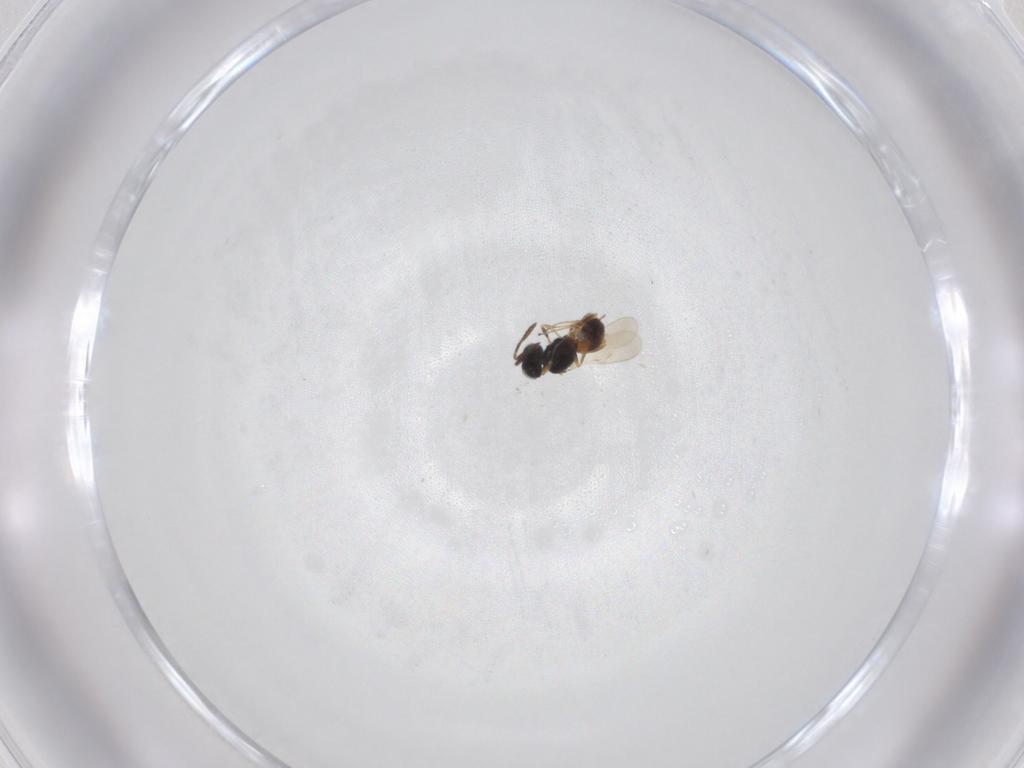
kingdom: Animalia
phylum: Arthropoda
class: Insecta
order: Hymenoptera
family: Scelionidae
